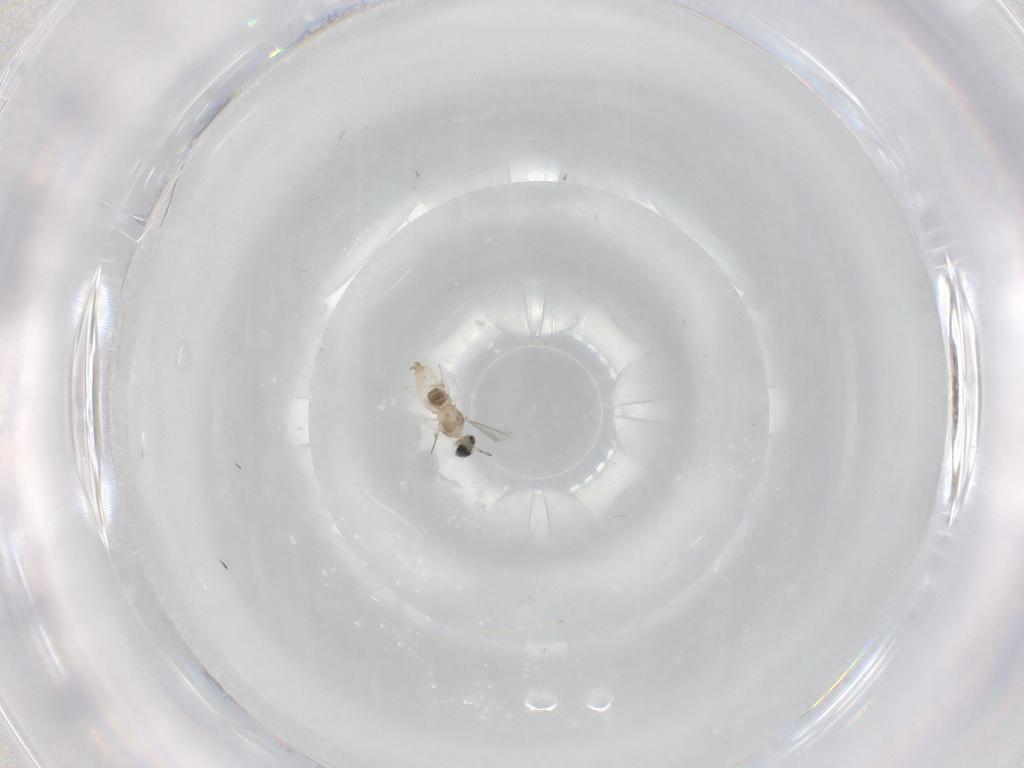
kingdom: Animalia
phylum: Arthropoda
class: Insecta
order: Diptera
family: Cecidomyiidae
